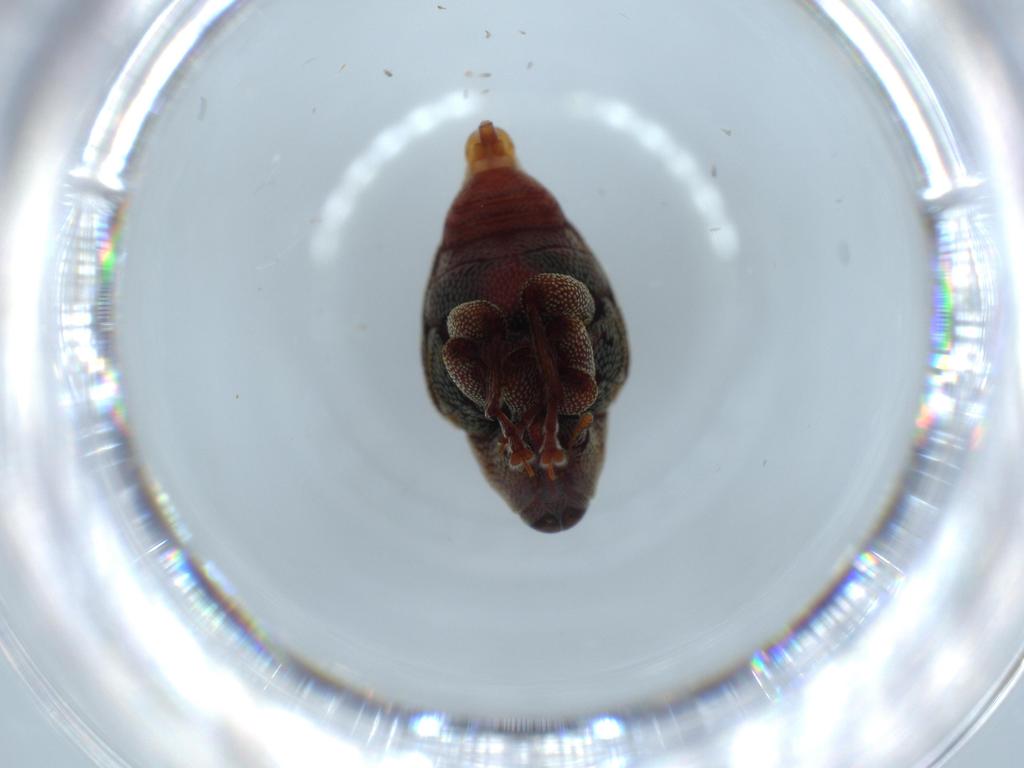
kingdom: Animalia
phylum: Arthropoda
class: Insecta
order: Coleoptera
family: Curculionidae
